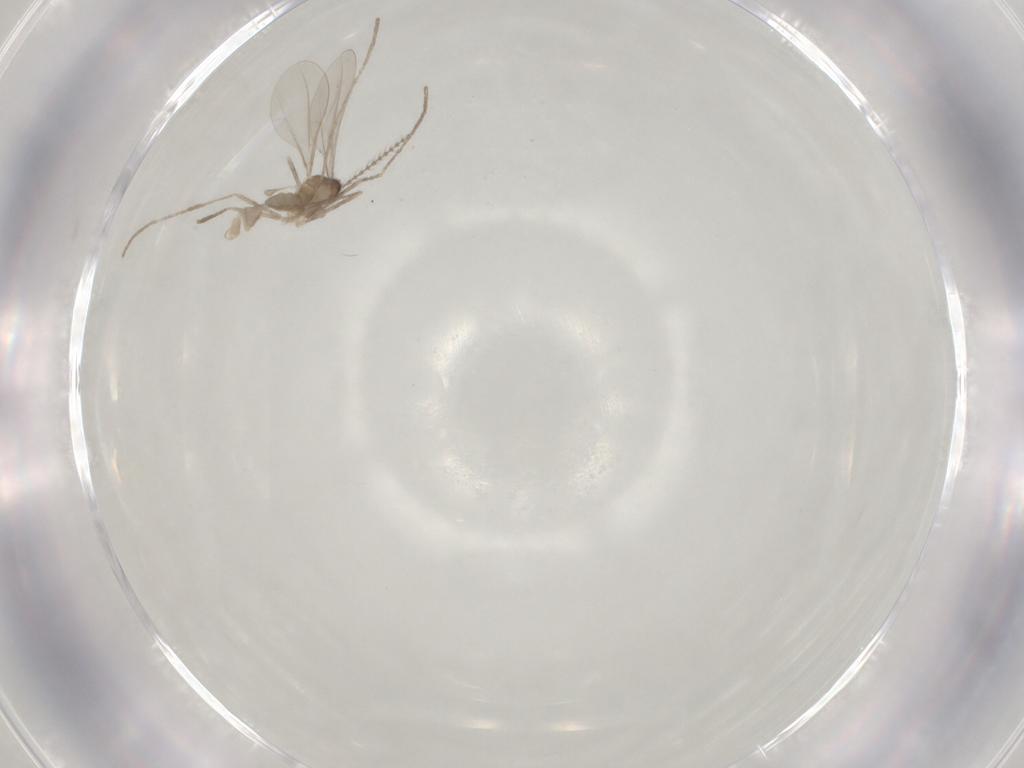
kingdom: Animalia
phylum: Arthropoda
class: Insecta
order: Diptera
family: Cecidomyiidae
